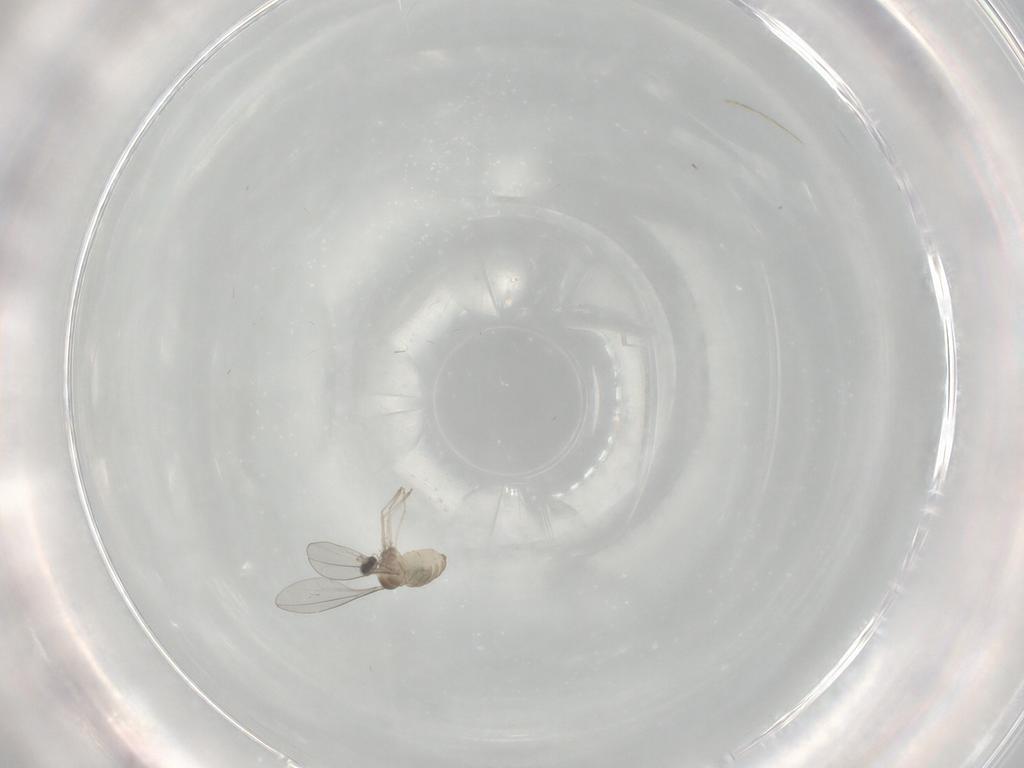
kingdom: Animalia
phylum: Arthropoda
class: Insecta
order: Diptera
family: Cecidomyiidae
